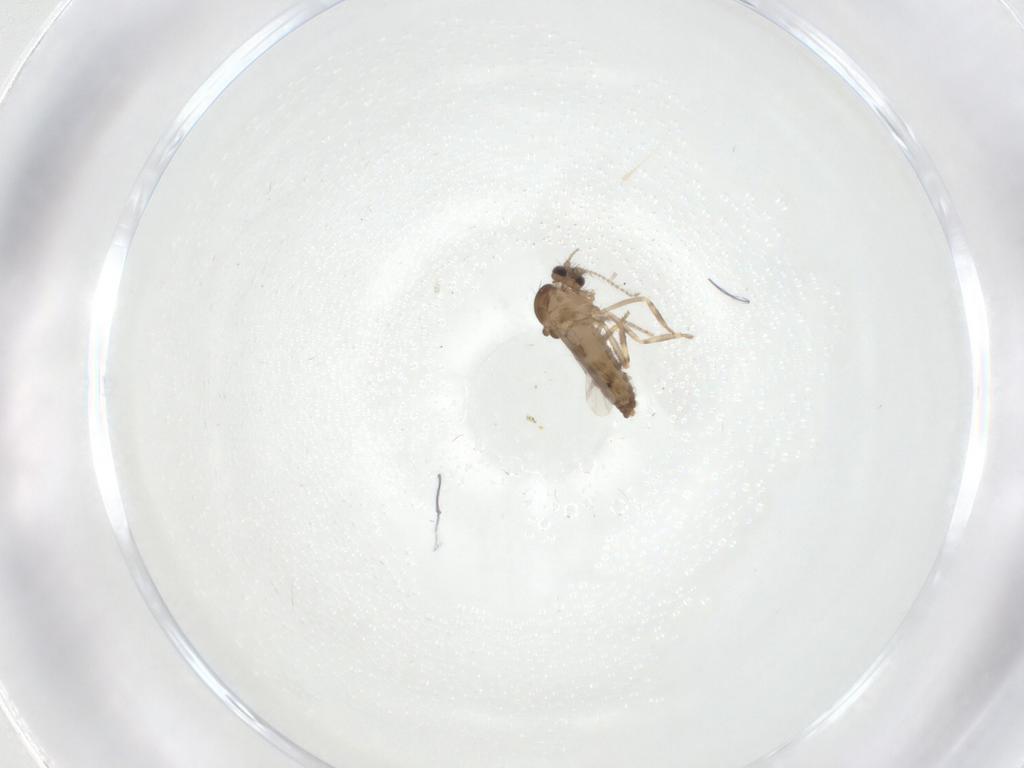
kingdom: Animalia
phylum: Arthropoda
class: Insecta
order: Diptera
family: Ceratopogonidae
